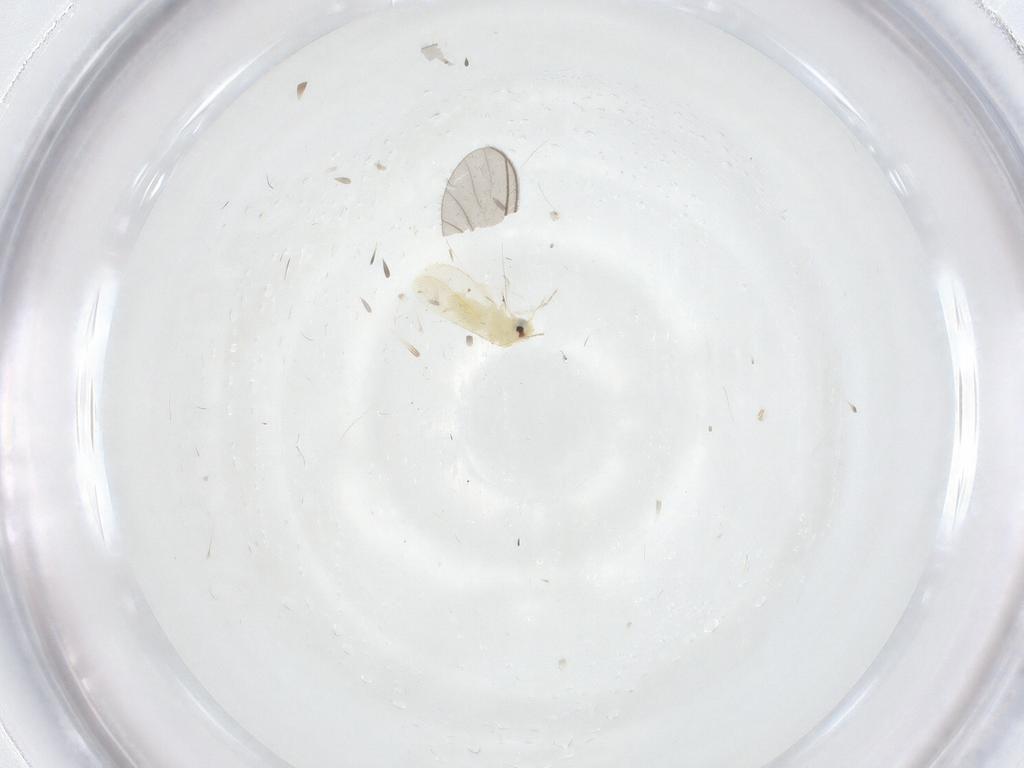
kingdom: Animalia
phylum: Arthropoda
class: Insecta
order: Hemiptera
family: Aleyrodidae
